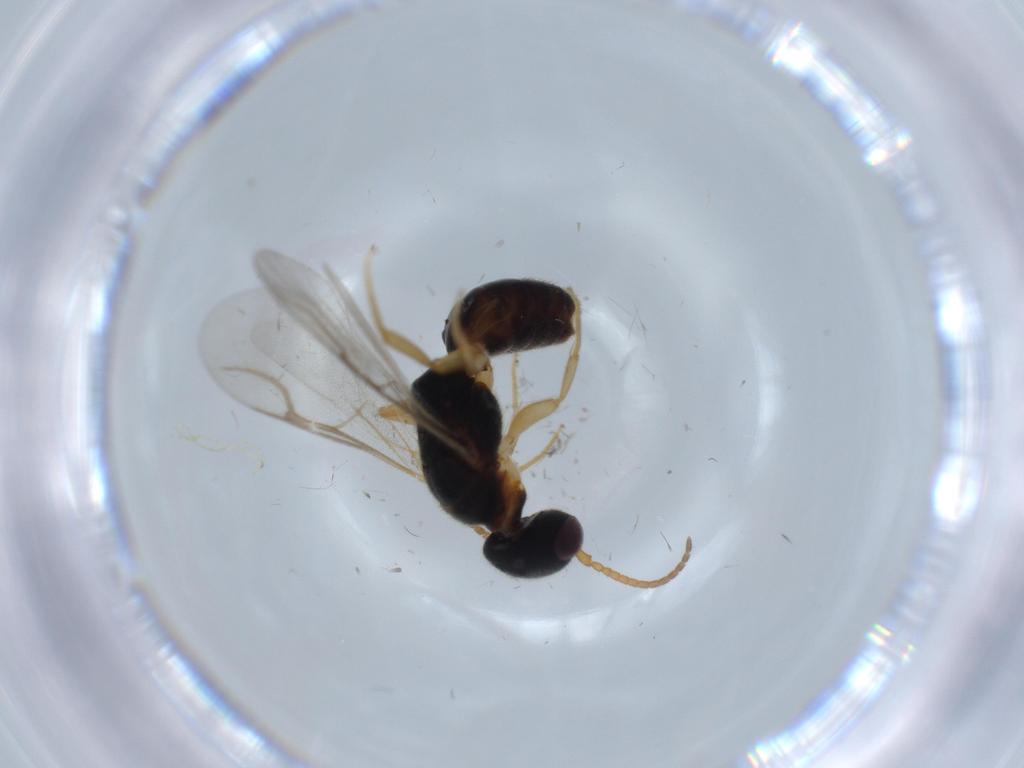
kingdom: Animalia
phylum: Arthropoda
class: Insecta
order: Hymenoptera
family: Bethylidae
